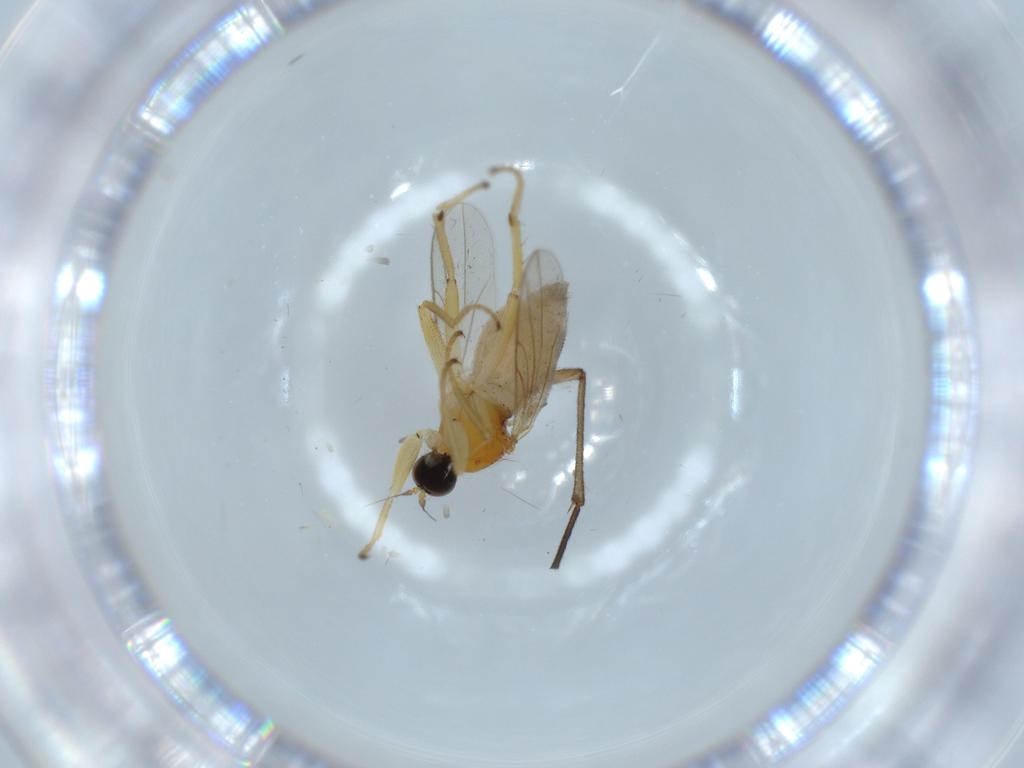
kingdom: Animalia
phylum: Arthropoda
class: Insecta
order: Diptera
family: Hybotidae
